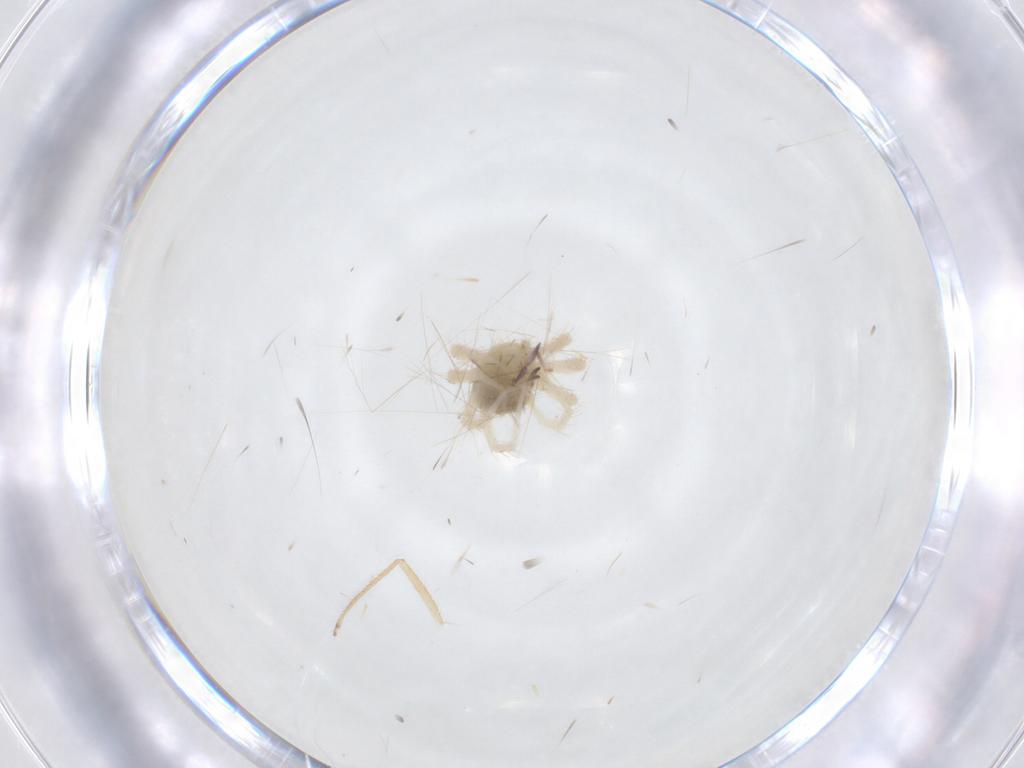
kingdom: Animalia
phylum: Arthropoda
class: Arachnida
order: Trombidiformes
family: Anystidae
